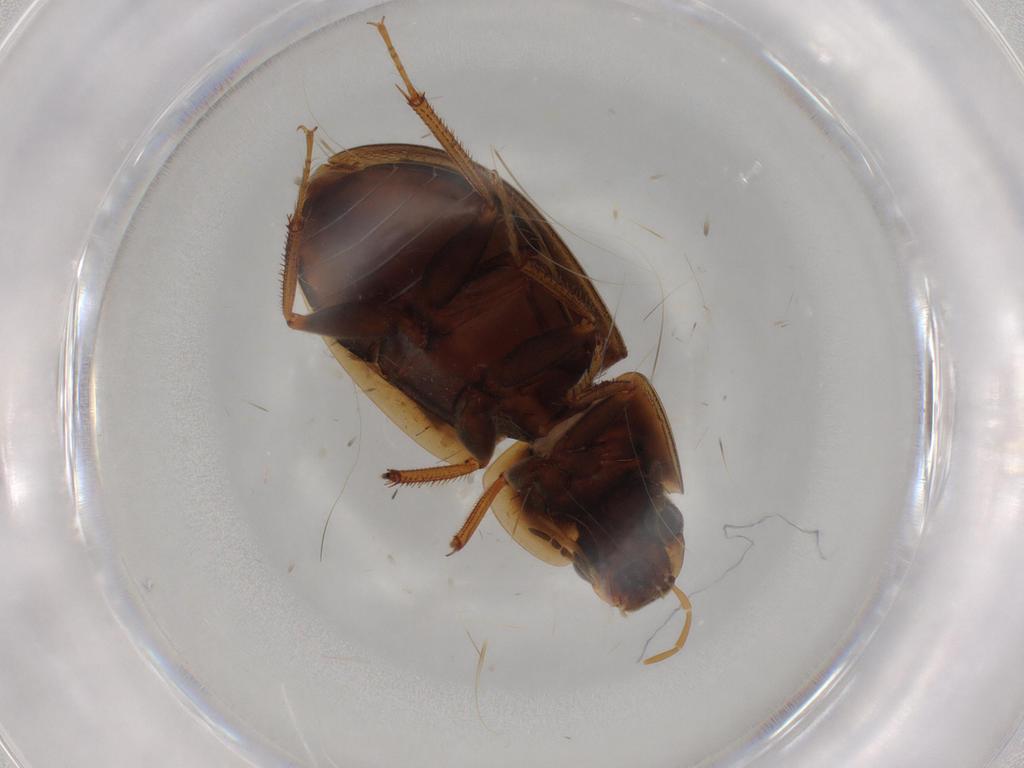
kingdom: Animalia
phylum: Arthropoda
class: Insecta
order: Coleoptera
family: Hydrophilidae
